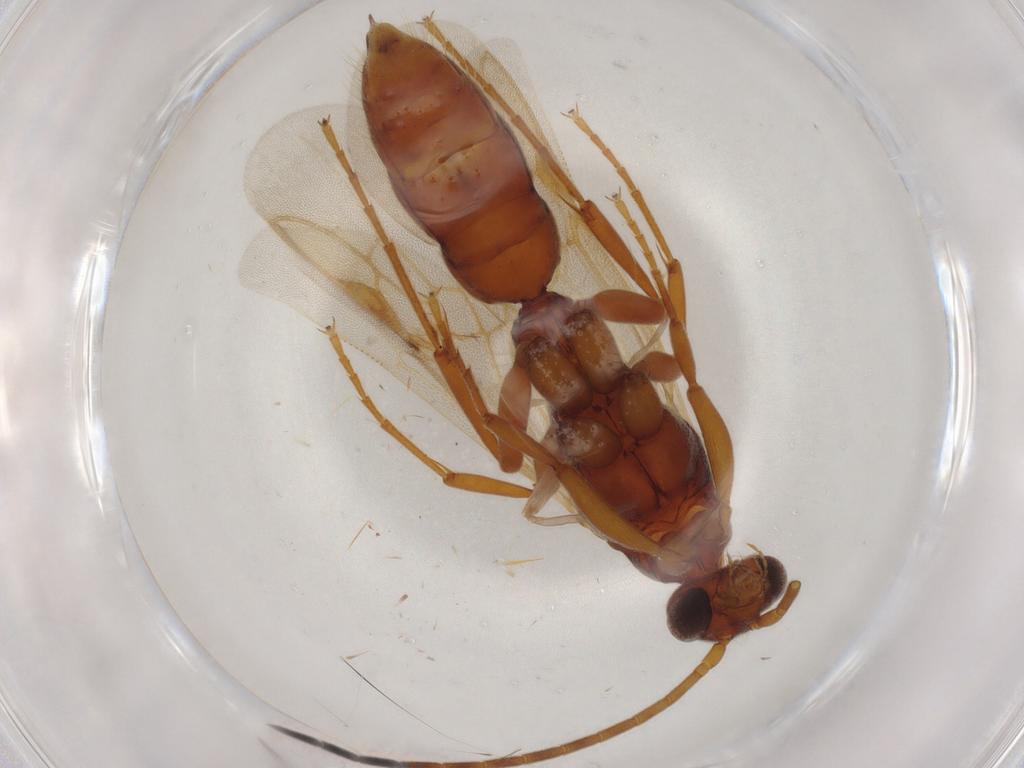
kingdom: Animalia
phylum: Arthropoda
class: Insecta
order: Hymenoptera
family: Formicidae
